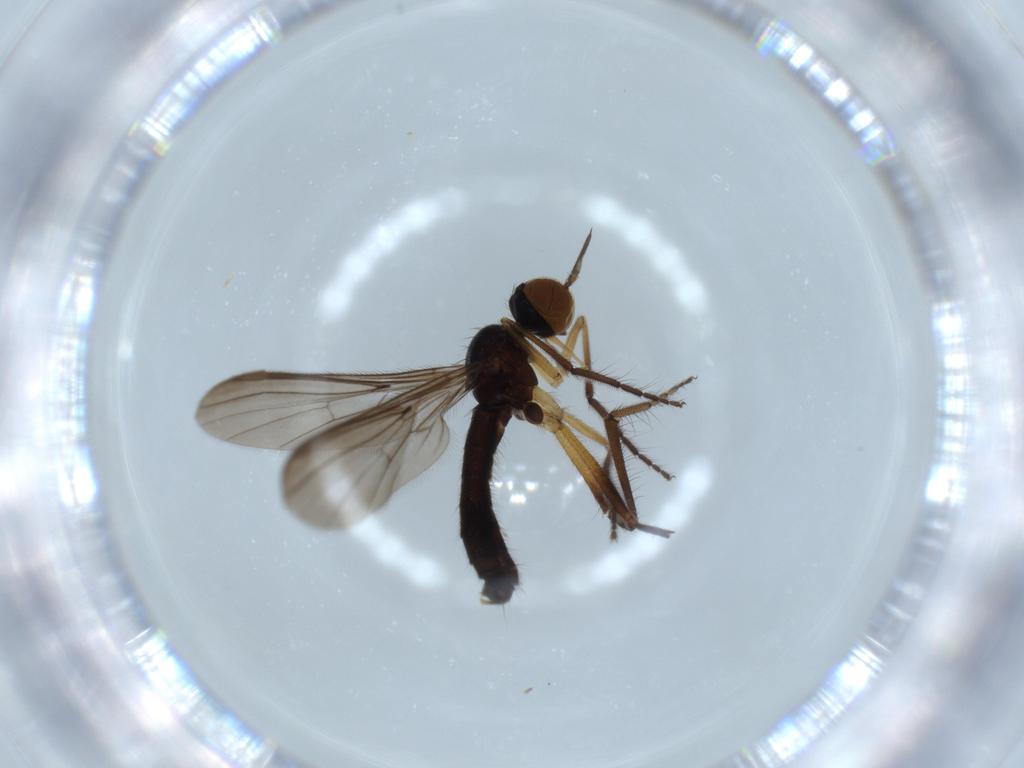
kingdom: Animalia
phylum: Arthropoda
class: Insecta
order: Diptera
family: Empididae
